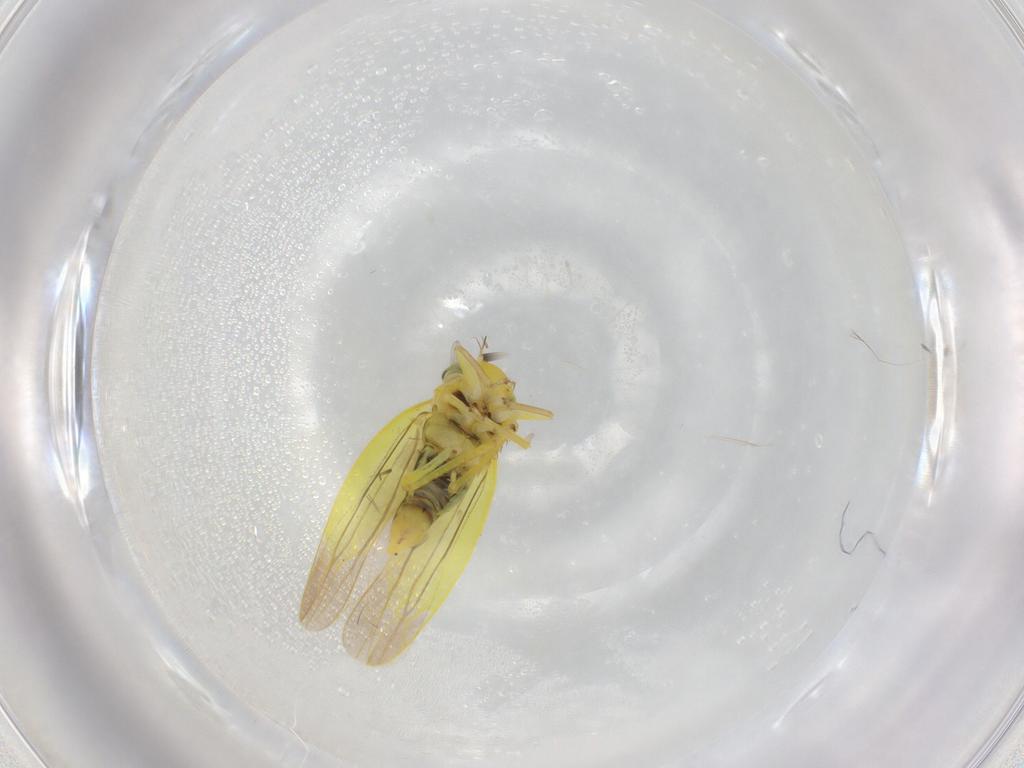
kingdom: Animalia
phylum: Arthropoda
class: Insecta
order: Hemiptera
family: Cicadellidae
